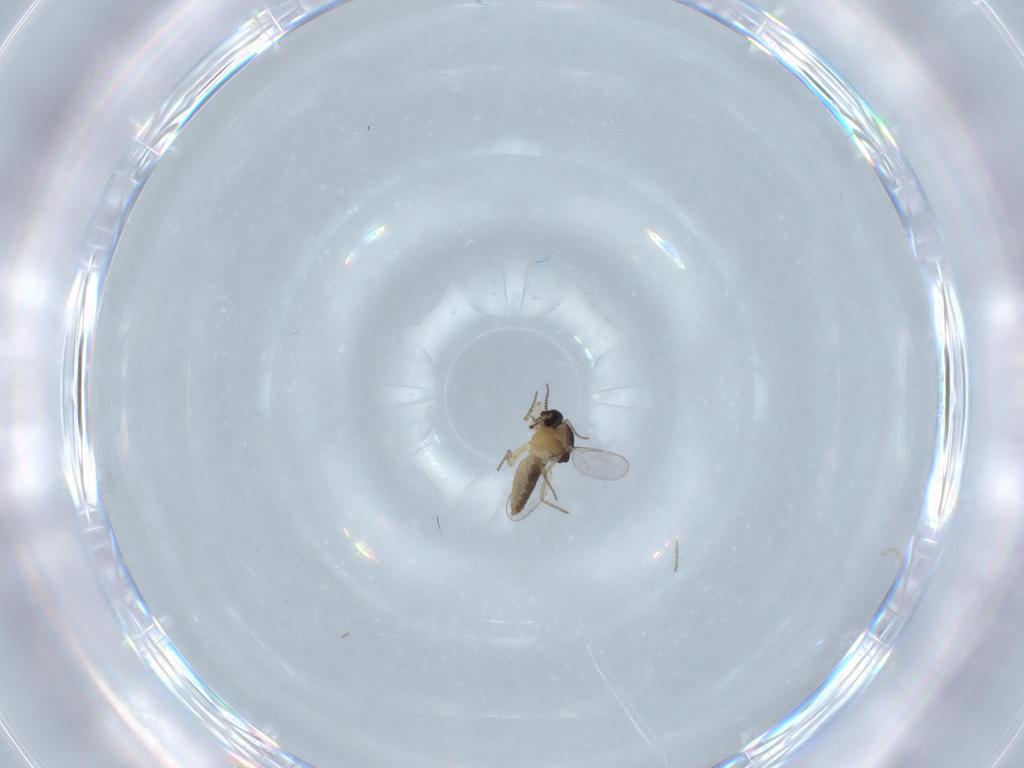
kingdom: Animalia
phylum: Arthropoda
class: Insecta
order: Diptera
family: Ceratopogonidae
